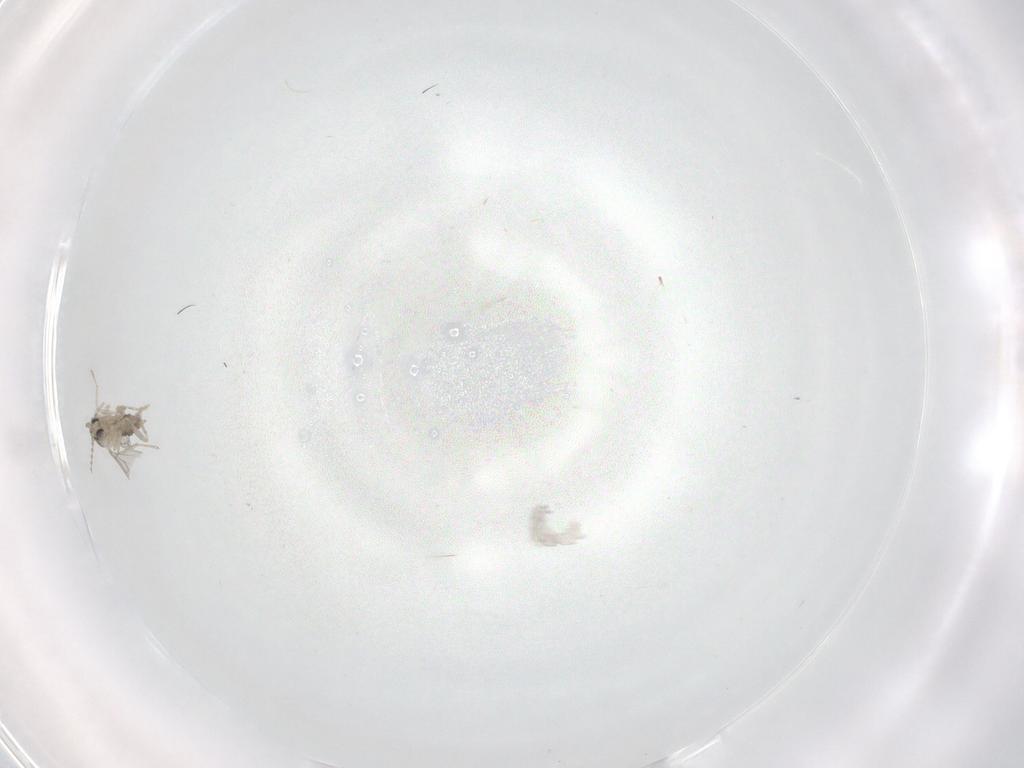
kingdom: Animalia
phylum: Arthropoda
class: Insecta
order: Diptera
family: Cecidomyiidae
